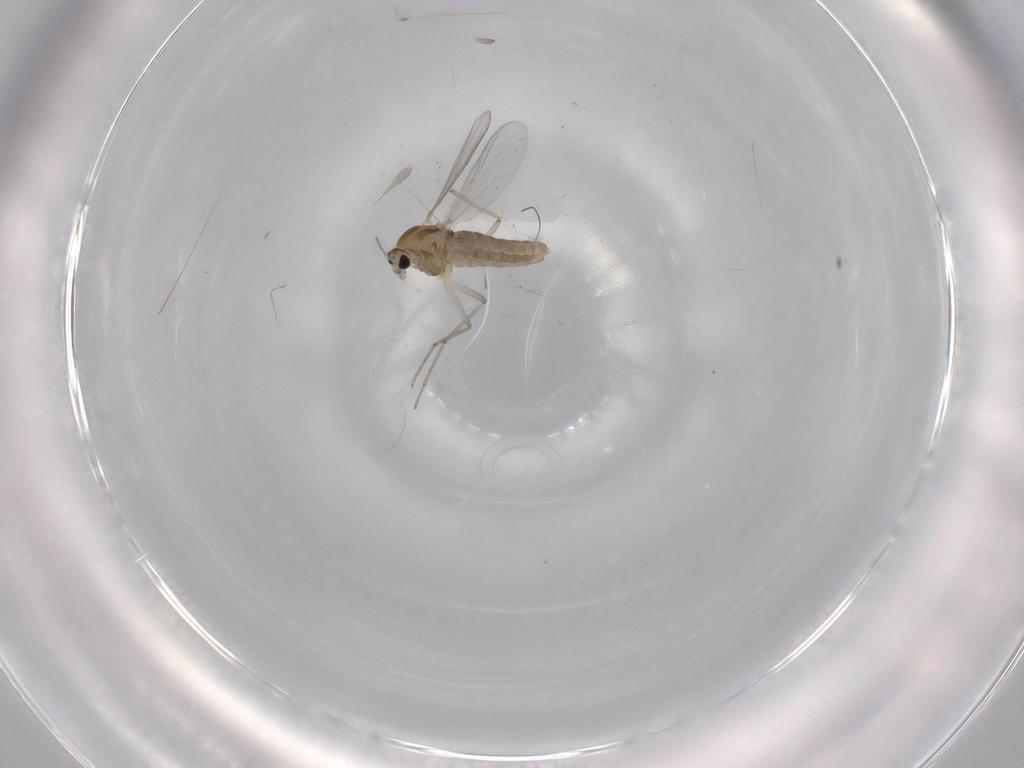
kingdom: Animalia
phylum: Arthropoda
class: Insecta
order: Diptera
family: Chironomidae
